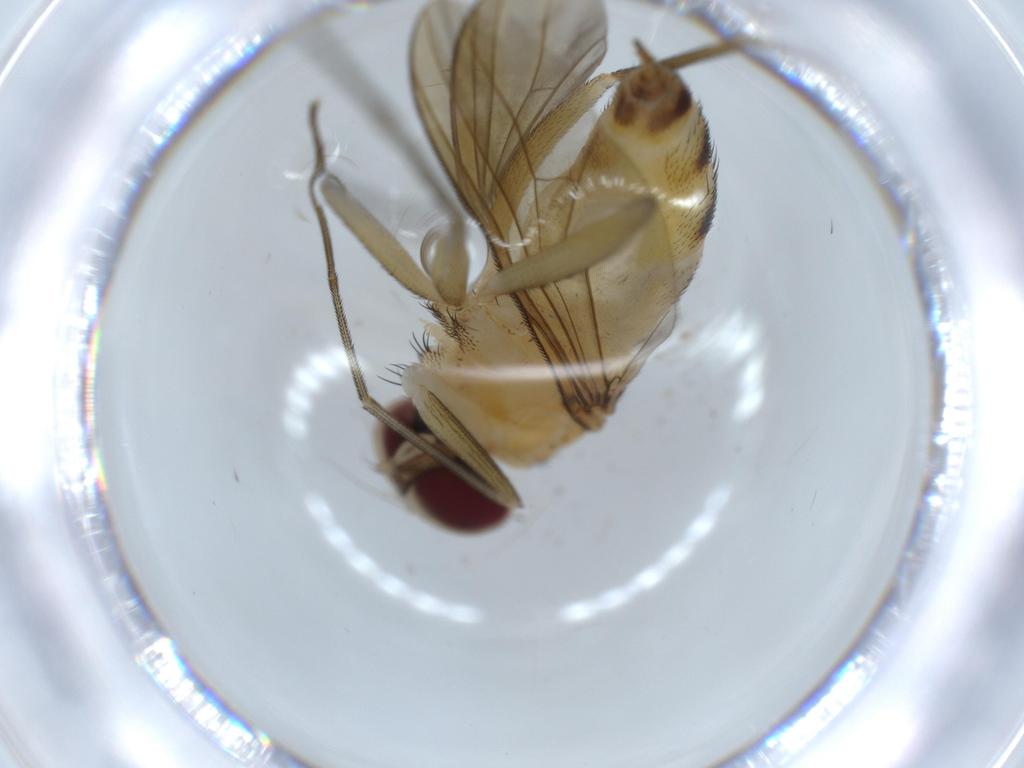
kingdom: Animalia
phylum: Arthropoda
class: Insecta
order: Diptera
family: Dolichopodidae
